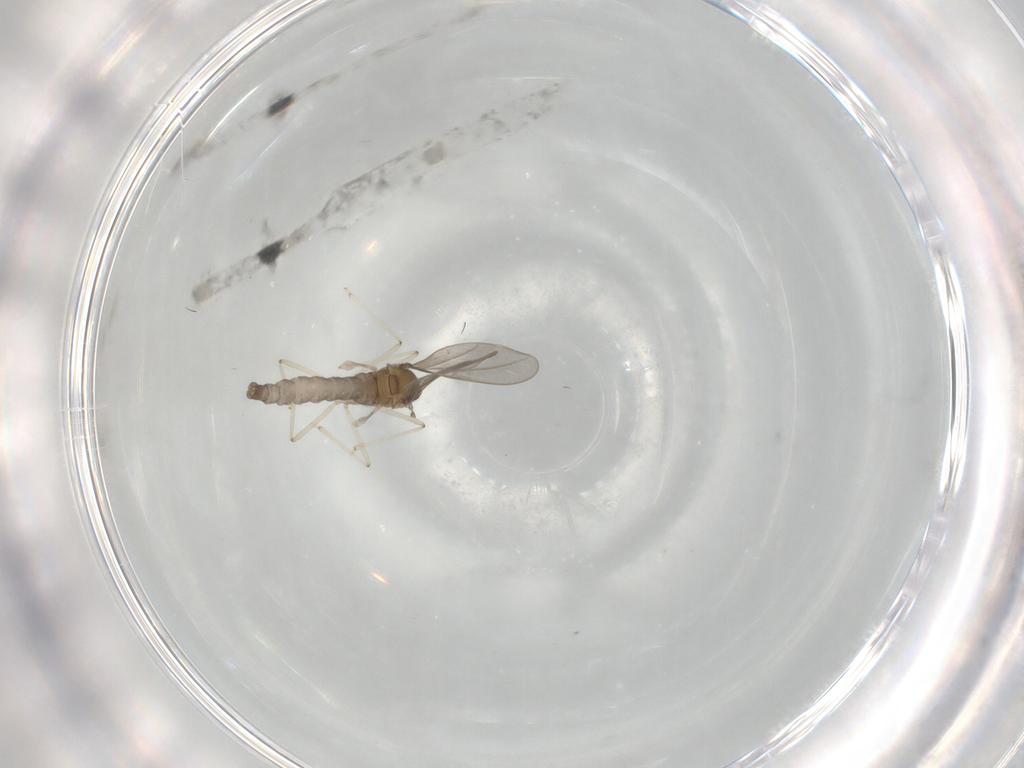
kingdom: Animalia
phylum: Arthropoda
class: Insecta
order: Diptera
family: Cecidomyiidae
